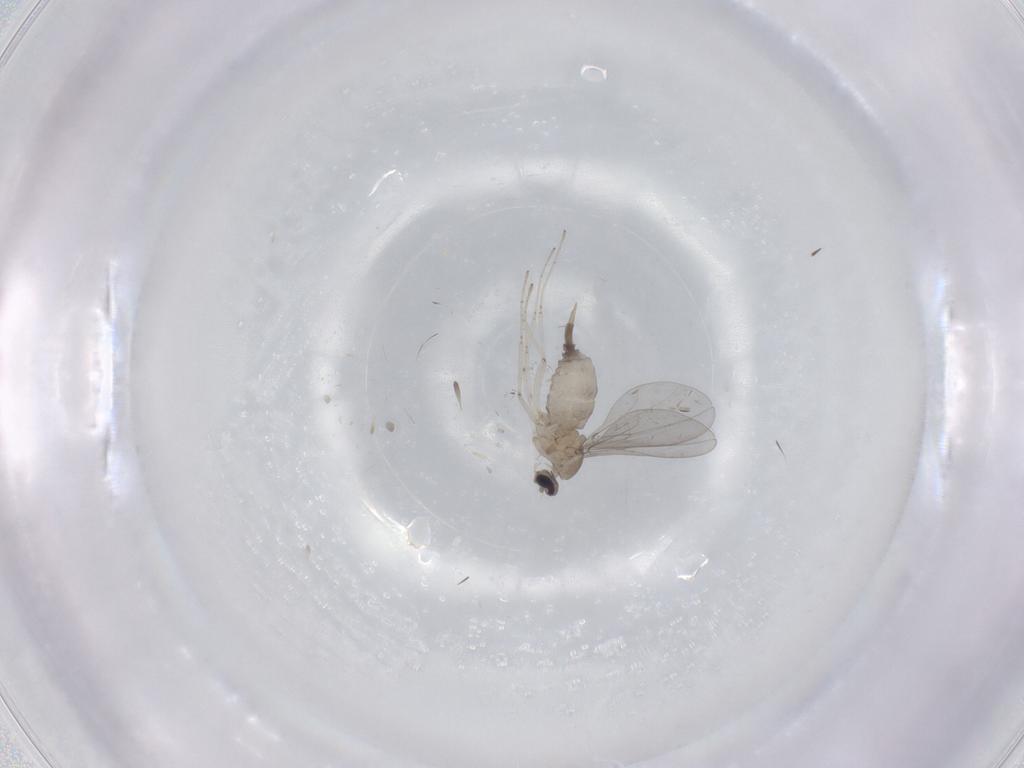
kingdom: Animalia
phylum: Arthropoda
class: Insecta
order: Diptera
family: Cecidomyiidae
